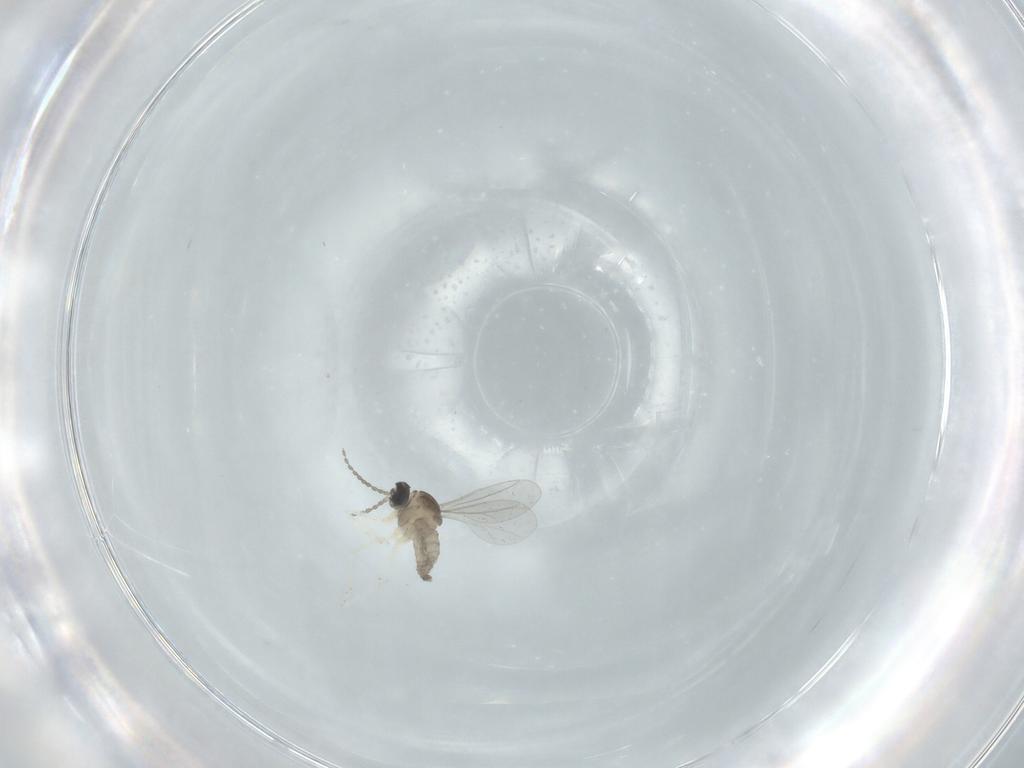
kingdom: Animalia
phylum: Arthropoda
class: Insecta
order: Diptera
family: Cecidomyiidae
